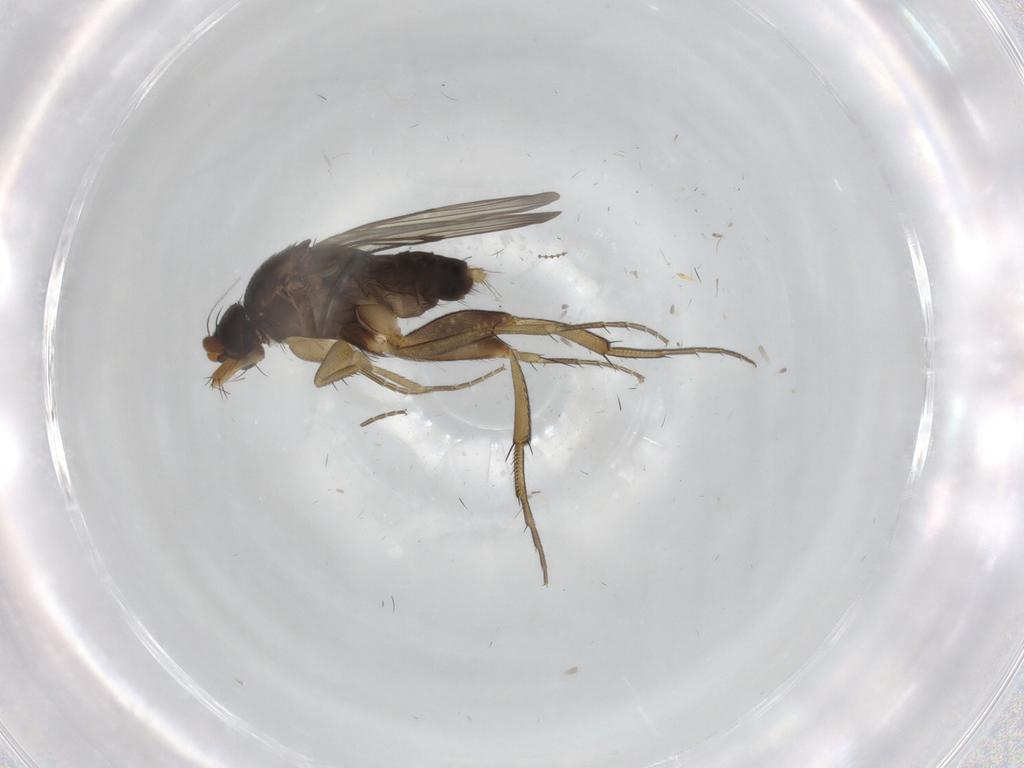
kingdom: Animalia
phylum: Arthropoda
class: Insecta
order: Diptera
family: Phoridae
